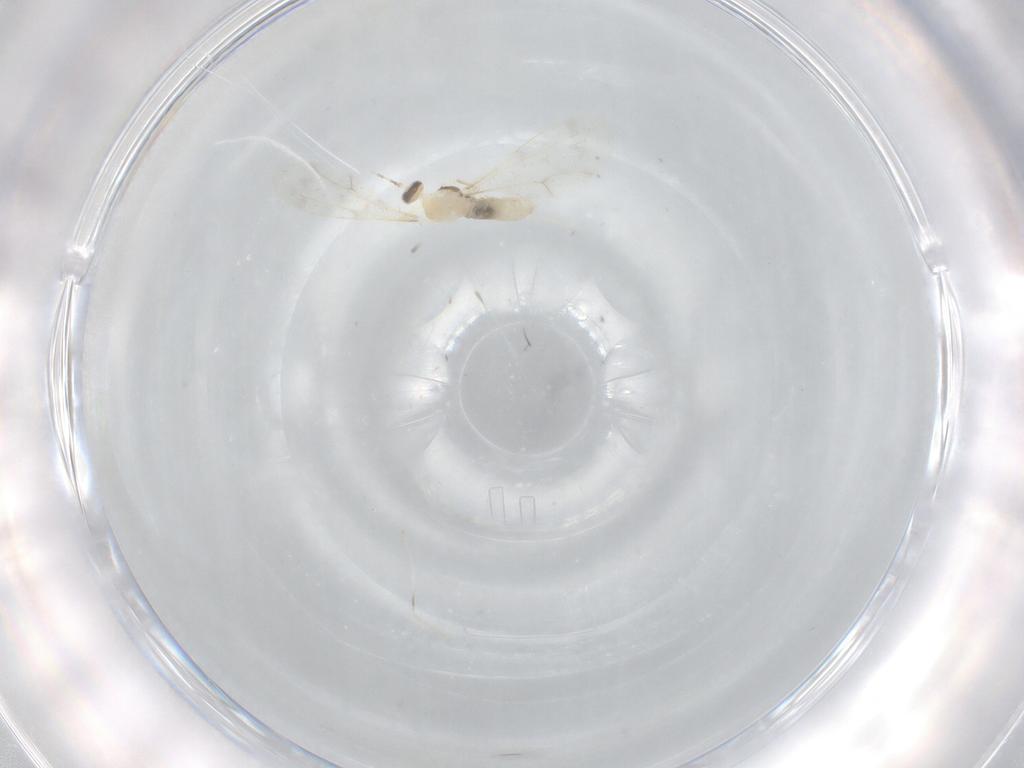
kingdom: Animalia
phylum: Arthropoda
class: Insecta
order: Diptera
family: Cecidomyiidae
